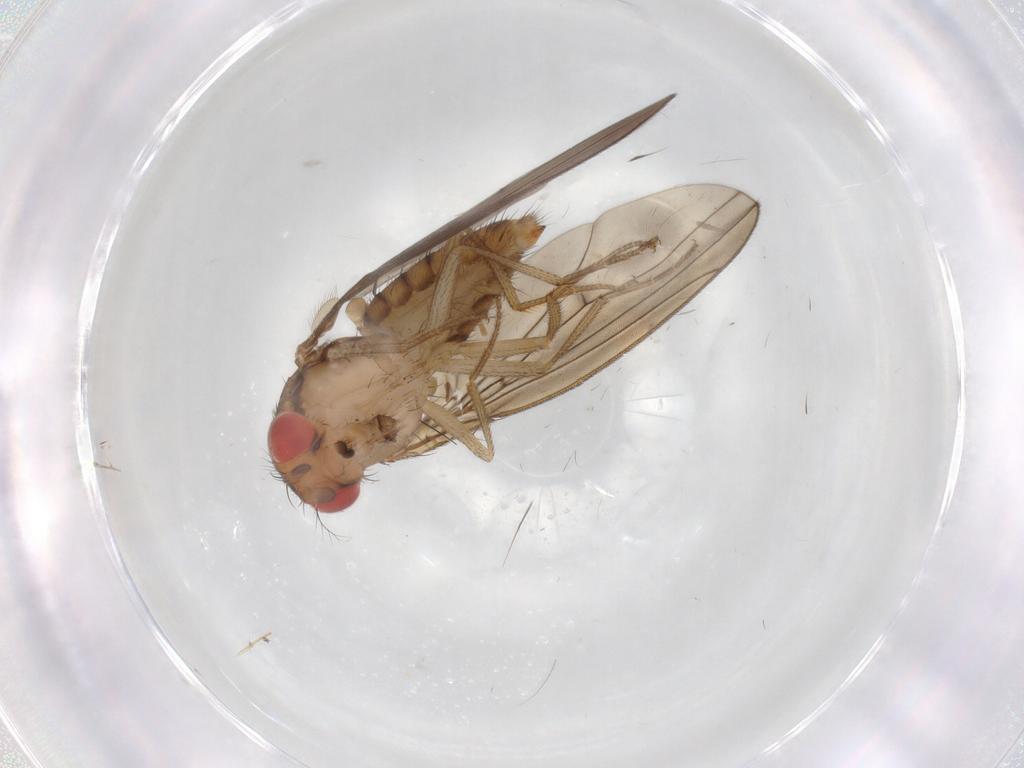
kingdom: Animalia
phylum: Arthropoda
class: Insecta
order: Diptera
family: Drosophilidae
